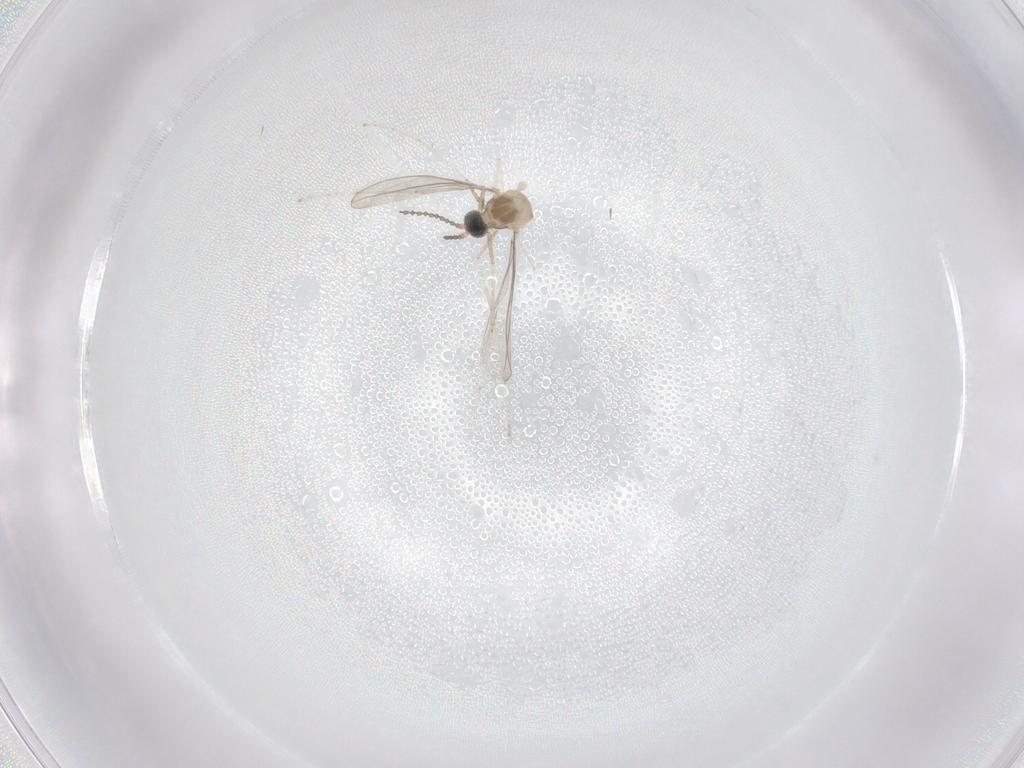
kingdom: Animalia
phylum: Arthropoda
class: Insecta
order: Diptera
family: Cecidomyiidae
